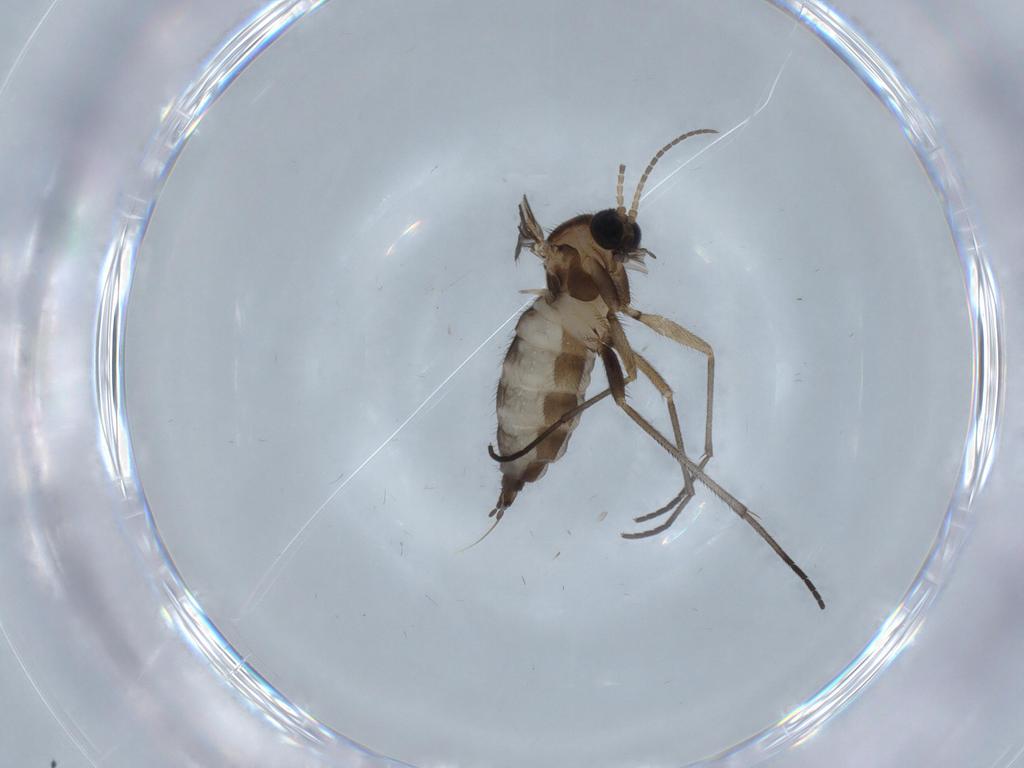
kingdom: Animalia
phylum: Arthropoda
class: Insecta
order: Diptera
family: Sciaridae
